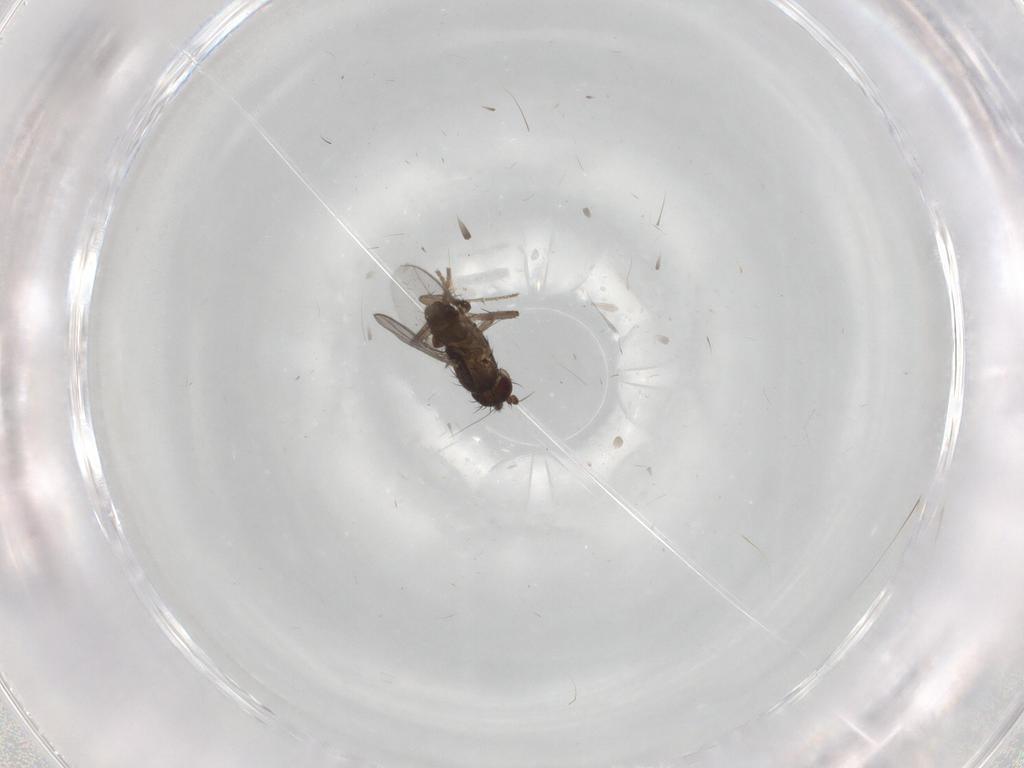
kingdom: Animalia
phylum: Arthropoda
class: Insecta
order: Diptera
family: Sphaeroceridae
